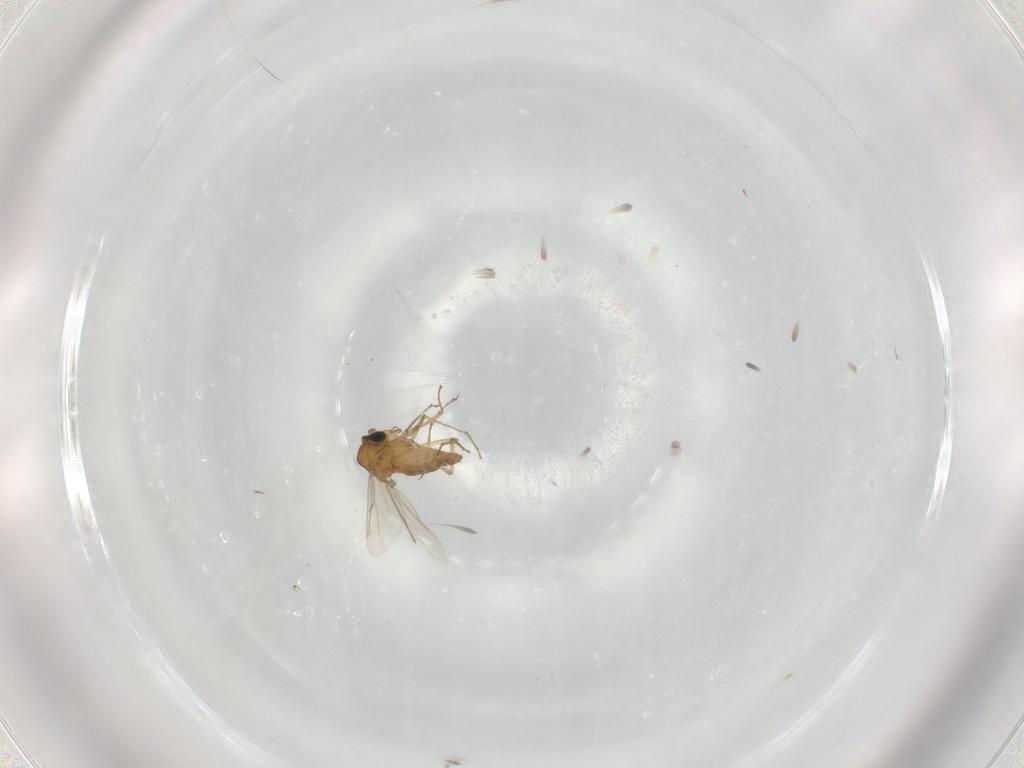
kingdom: Animalia
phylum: Arthropoda
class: Insecta
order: Diptera
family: Ceratopogonidae
